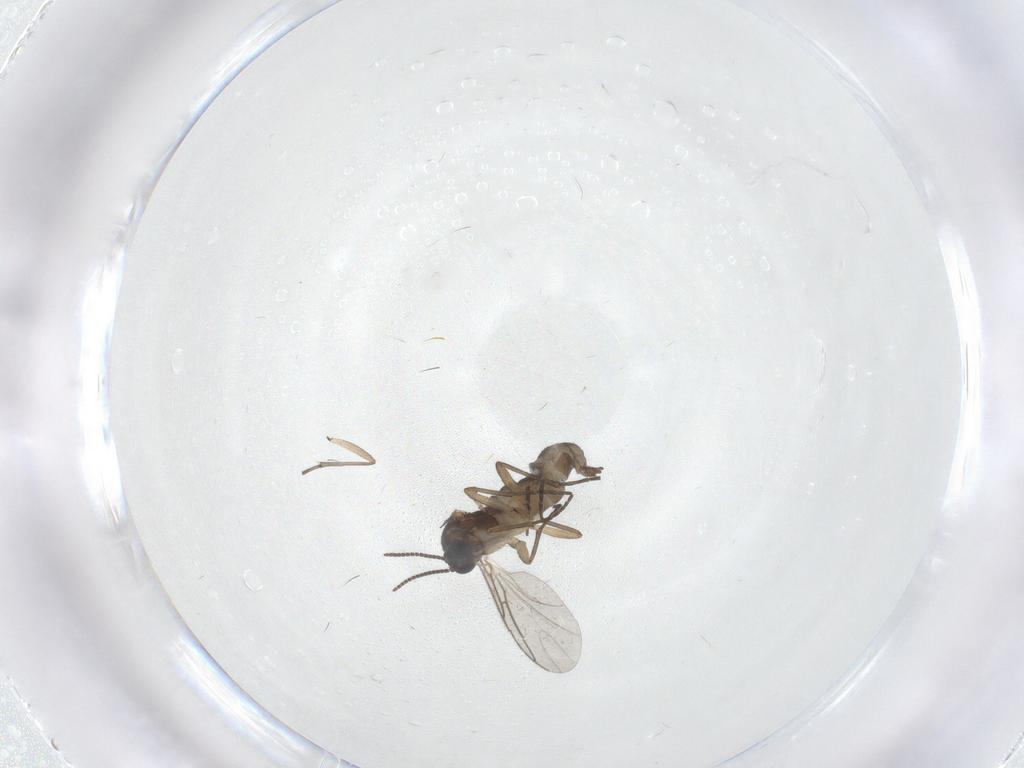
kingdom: Animalia
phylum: Arthropoda
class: Insecta
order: Diptera
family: Sciaridae
